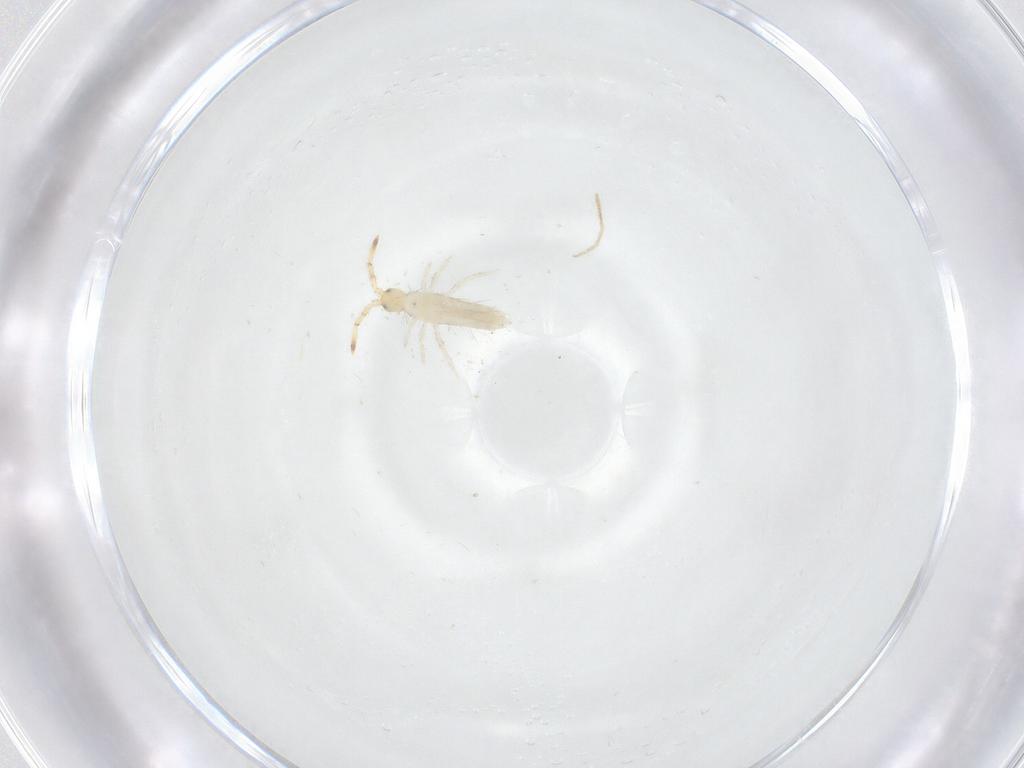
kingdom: Animalia
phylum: Arthropoda
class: Collembola
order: Entomobryomorpha
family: Entomobryidae
